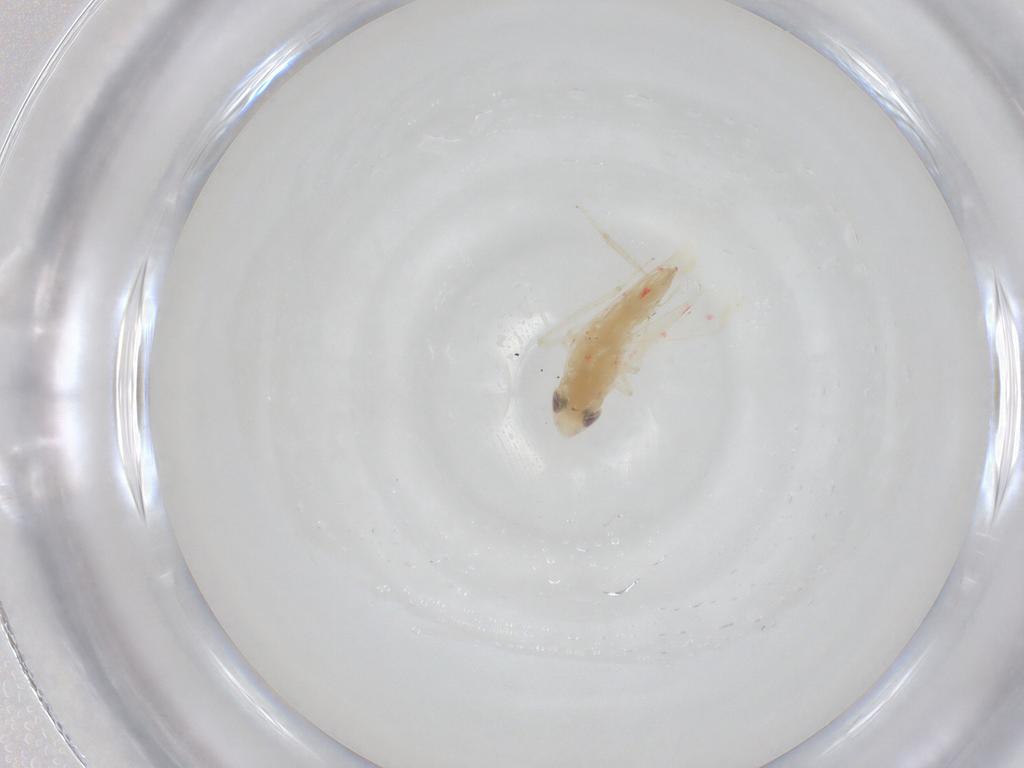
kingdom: Animalia
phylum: Arthropoda
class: Insecta
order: Hemiptera
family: Cicadellidae
